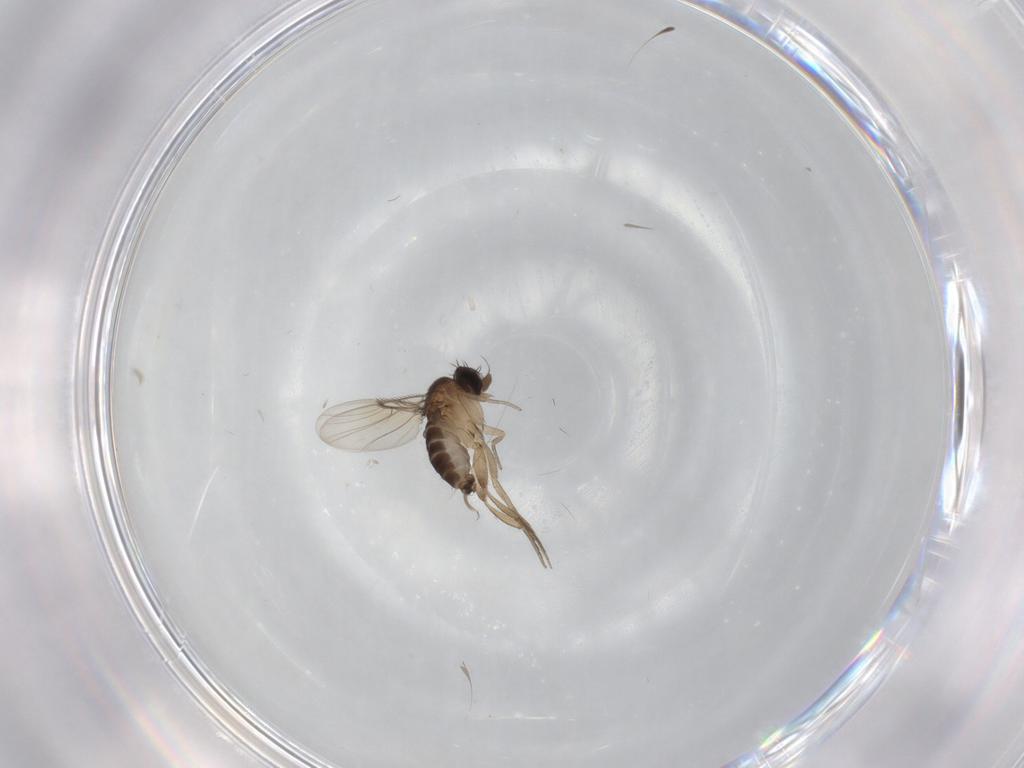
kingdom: Animalia
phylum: Arthropoda
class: Insecta
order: Diptera
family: Phoridae
